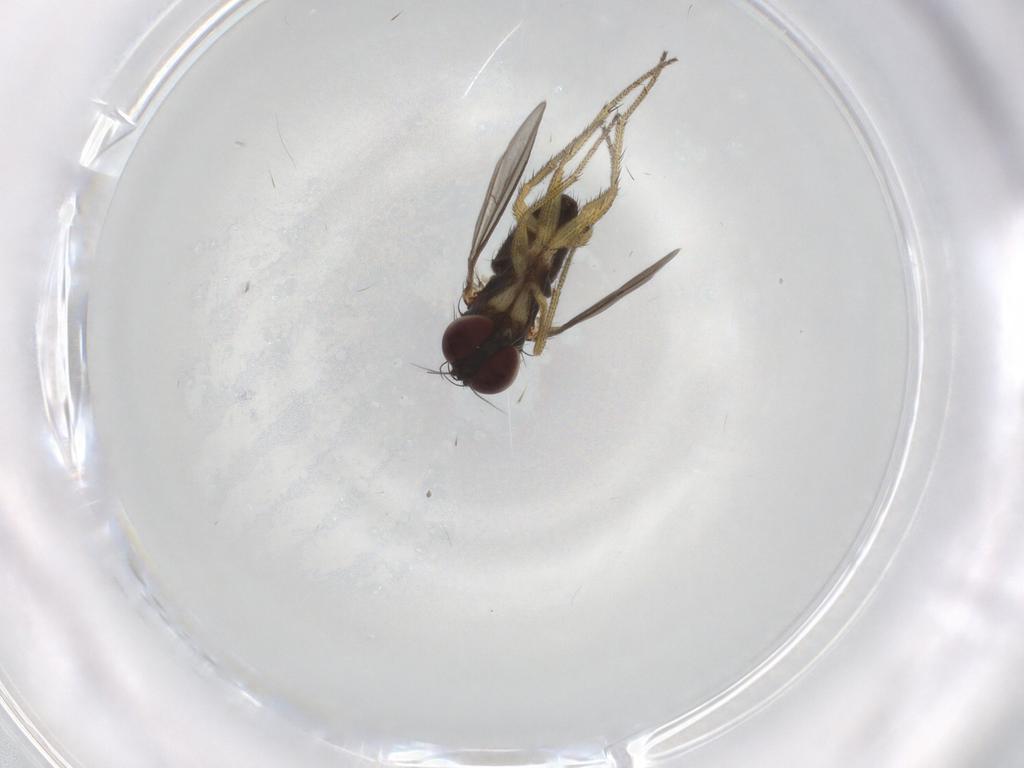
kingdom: Animalia
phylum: Arthropoda
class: Insecta
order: Diptera
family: Sciaridae
